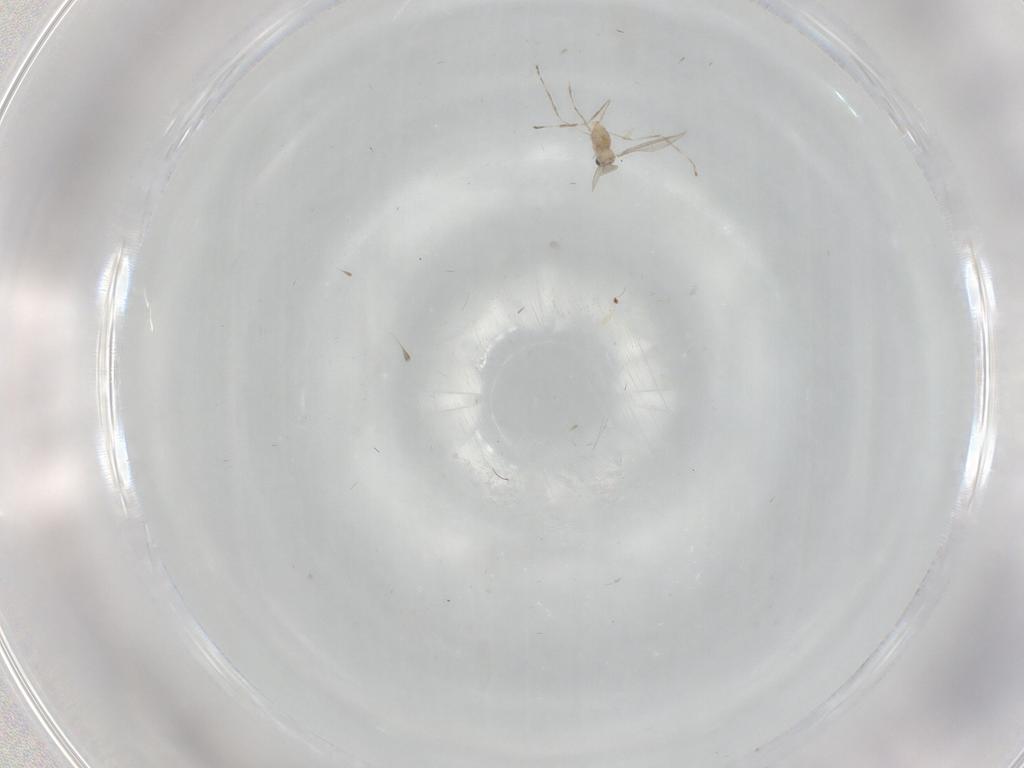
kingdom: Animalia
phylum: Arthropoda
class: Insecta
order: Diptera
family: Cecidomyiidae
